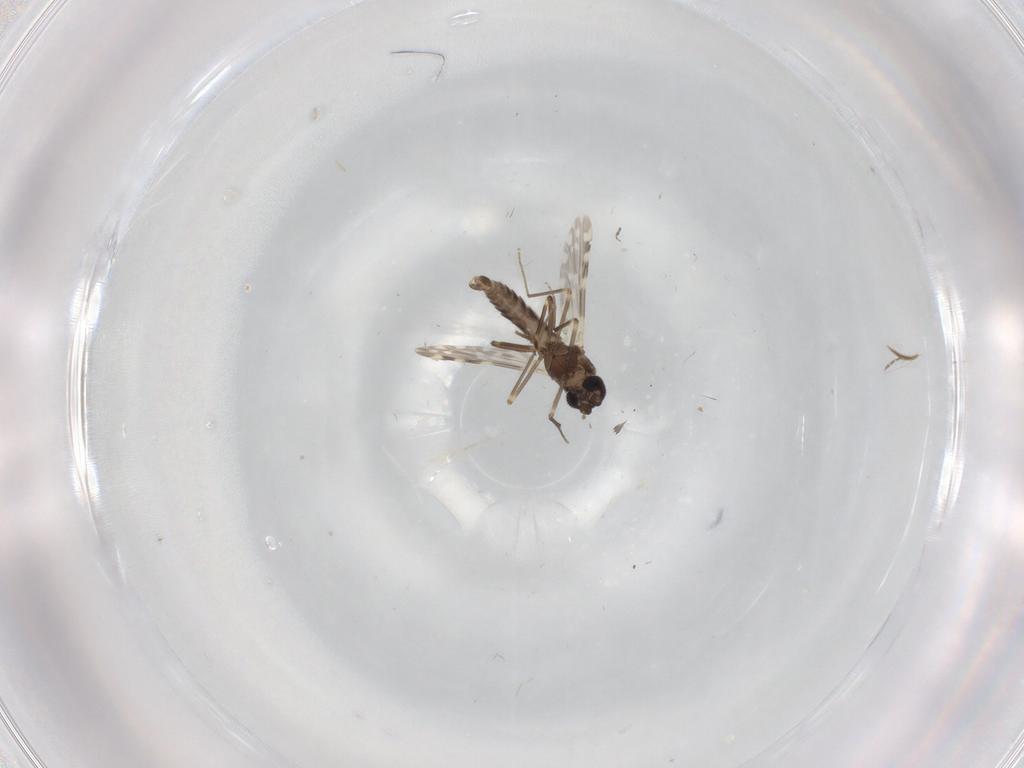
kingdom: Animalia
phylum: Arthropoda
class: Insecta
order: Diptera
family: Ceratopogonidae
